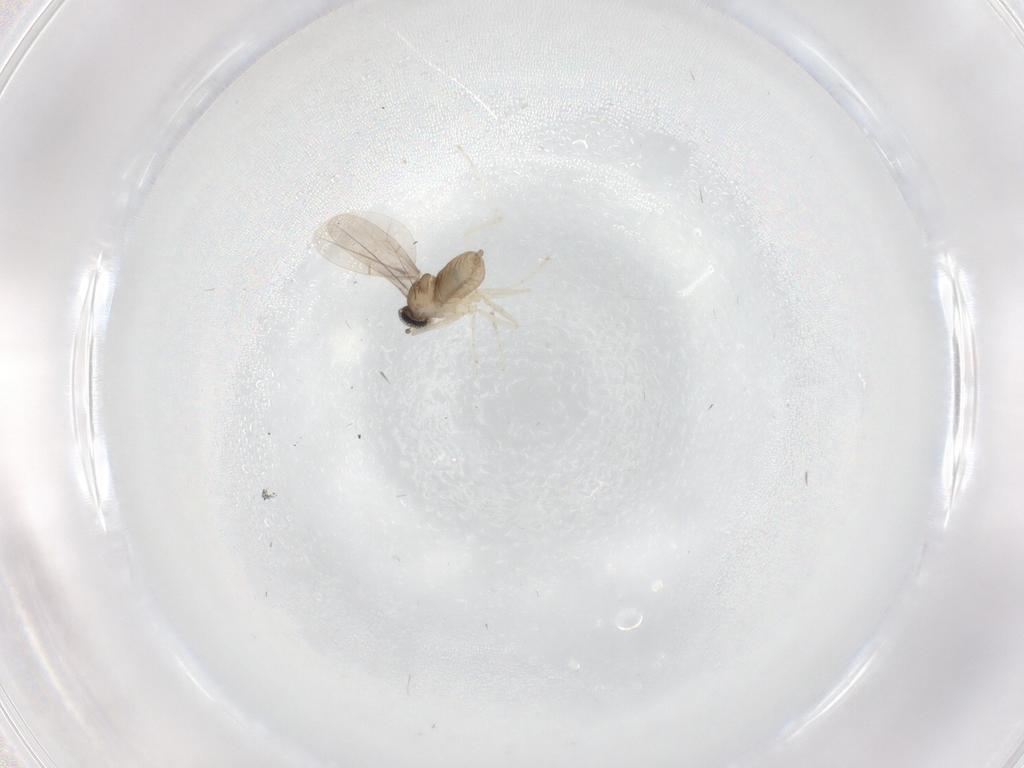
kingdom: Animalia
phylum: Arthropoda
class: Insecta
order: Diptera
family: Cecidomyiidae
